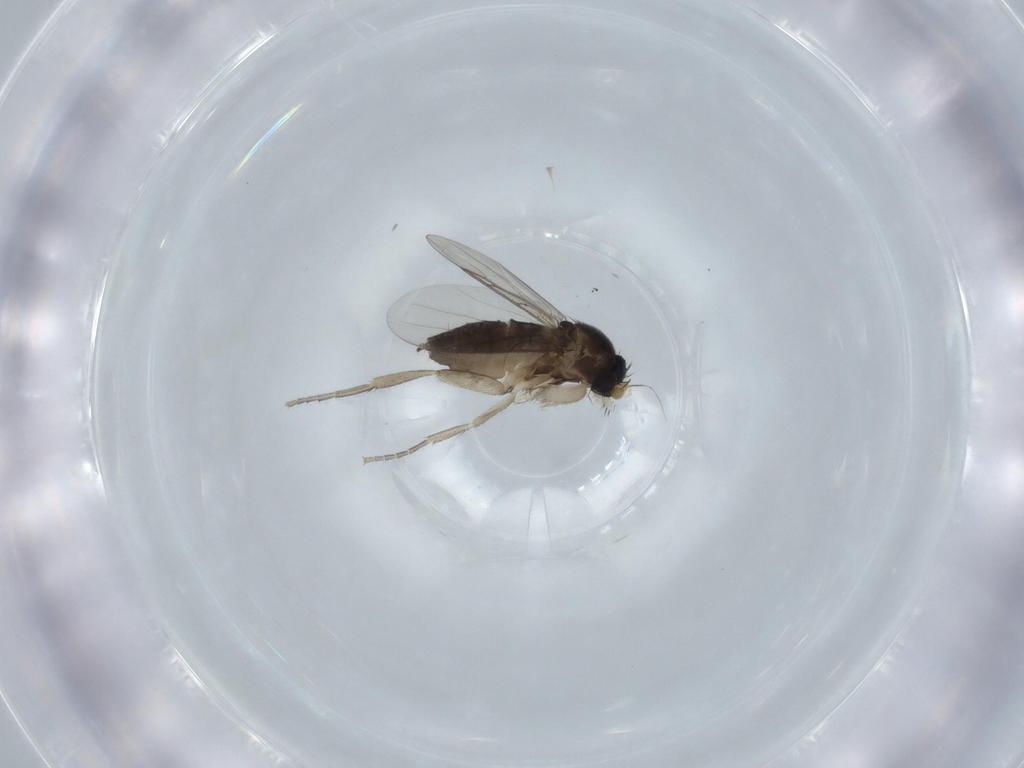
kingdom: Animalia
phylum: Arthropoda
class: Insecta
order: Diptera
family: Phoridae
